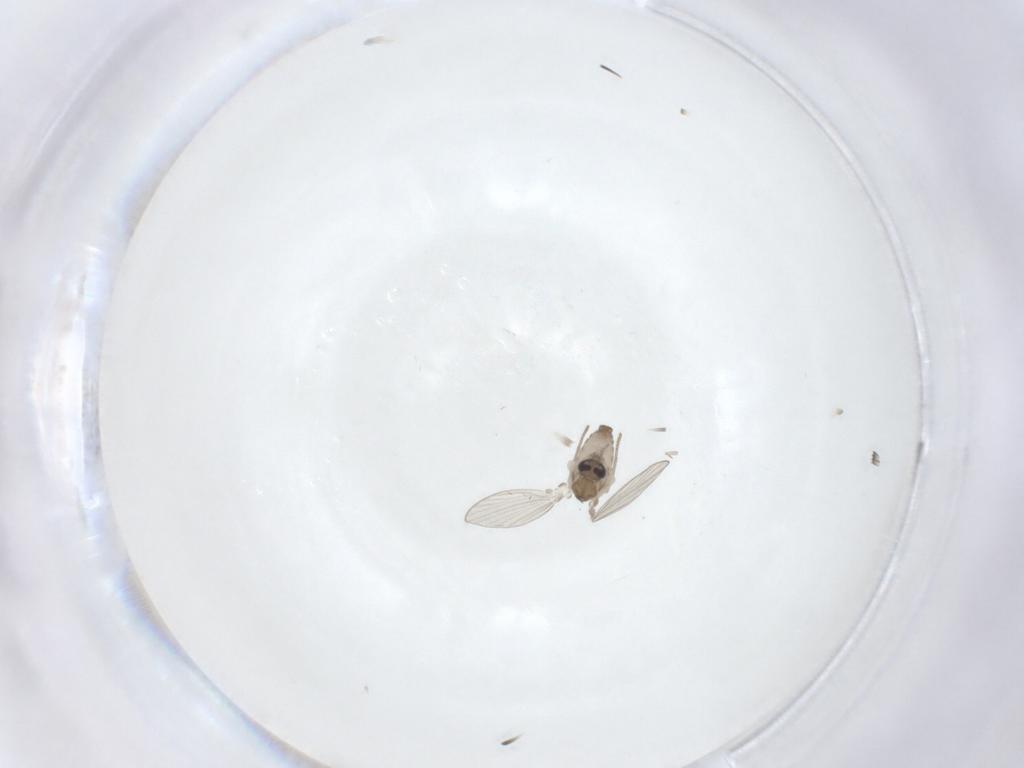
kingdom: Animalia
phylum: Arthropoda
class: Insecta
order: Diptera
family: Psychodidae
